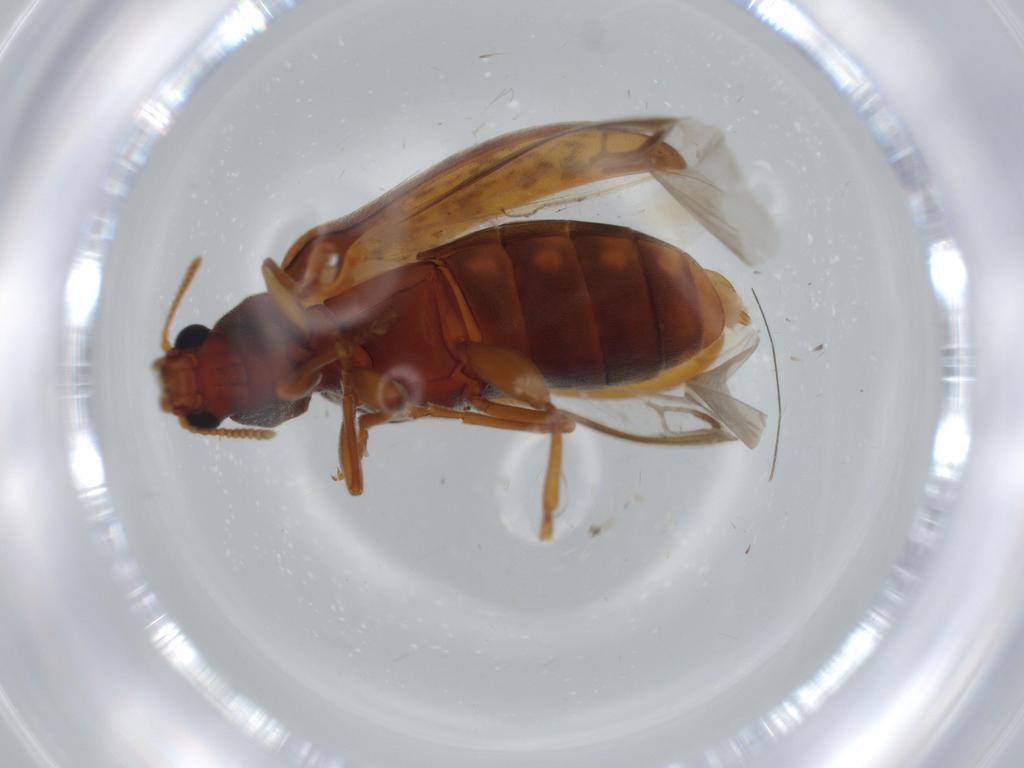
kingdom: Animalia
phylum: Arthropoda
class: Insecta
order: Coleoptera
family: Mycteridae
